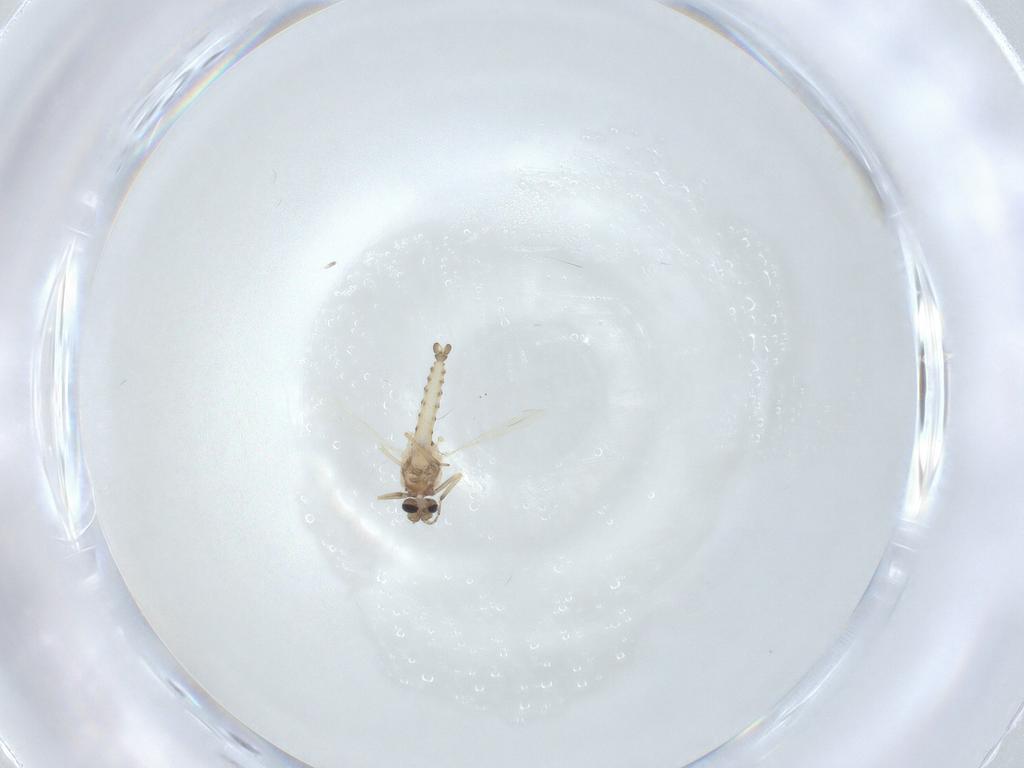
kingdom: Animalia
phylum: Arthropoda
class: Insecta
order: Diptera
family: Ceratopogonidae
